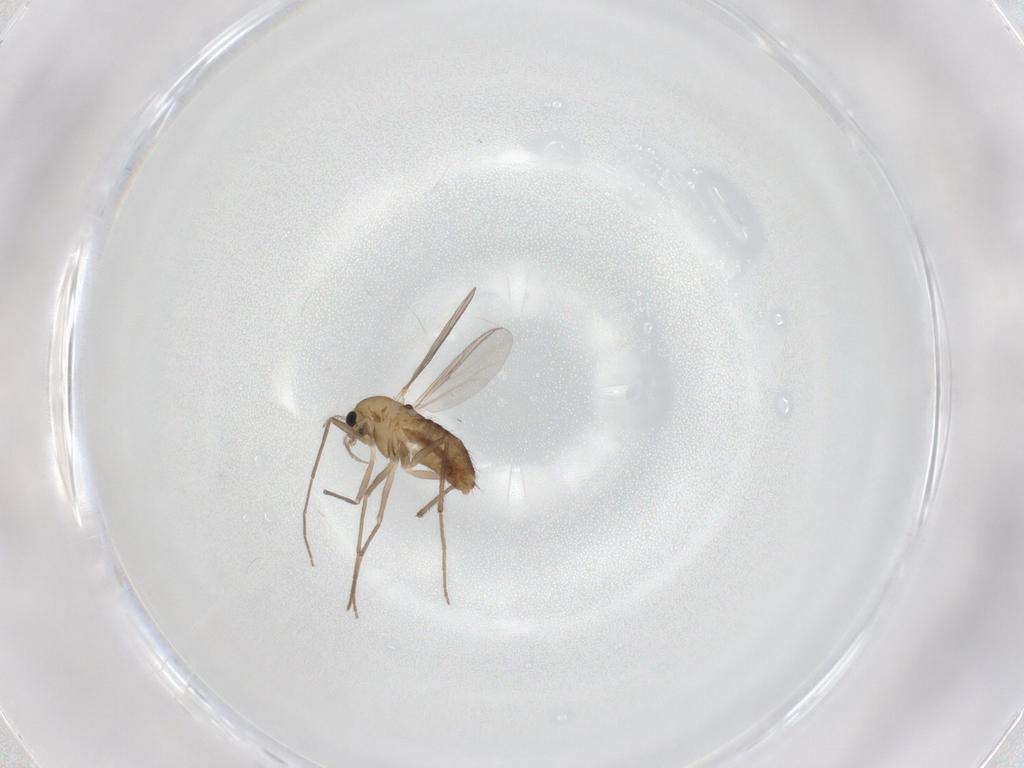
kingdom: Animalia
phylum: Arthropoda
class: Insecta
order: Diptera
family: Chironomidae
